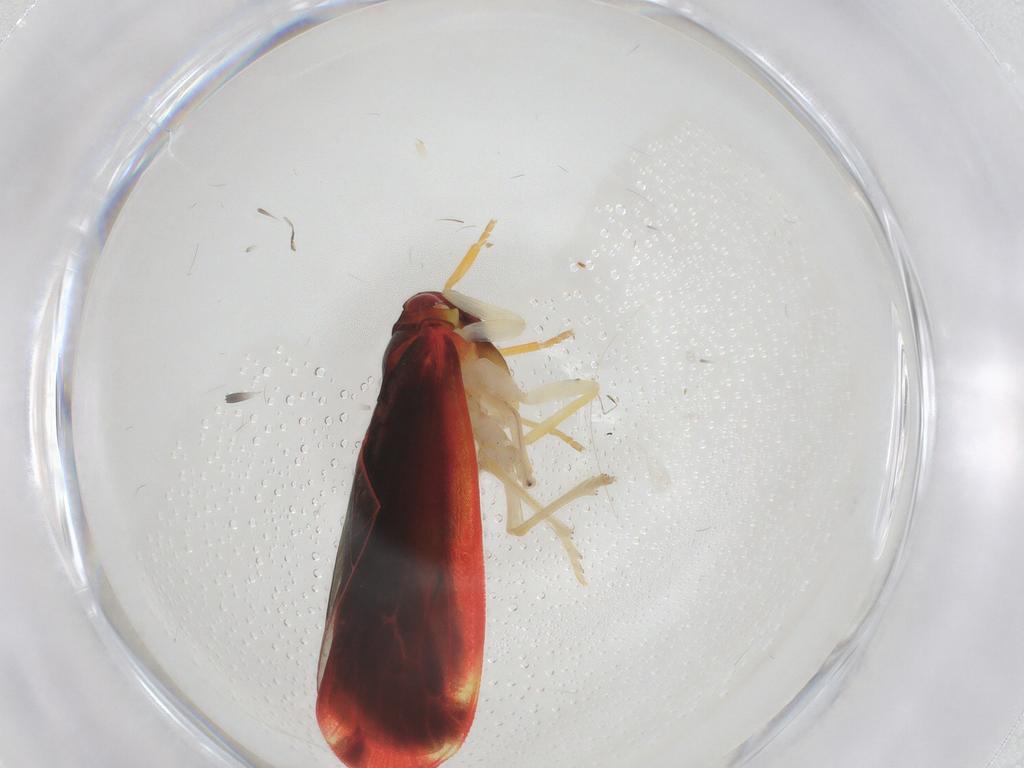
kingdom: Animalia
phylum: Arthropoda
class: Insecta
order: Hemiptera
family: Derbidae
